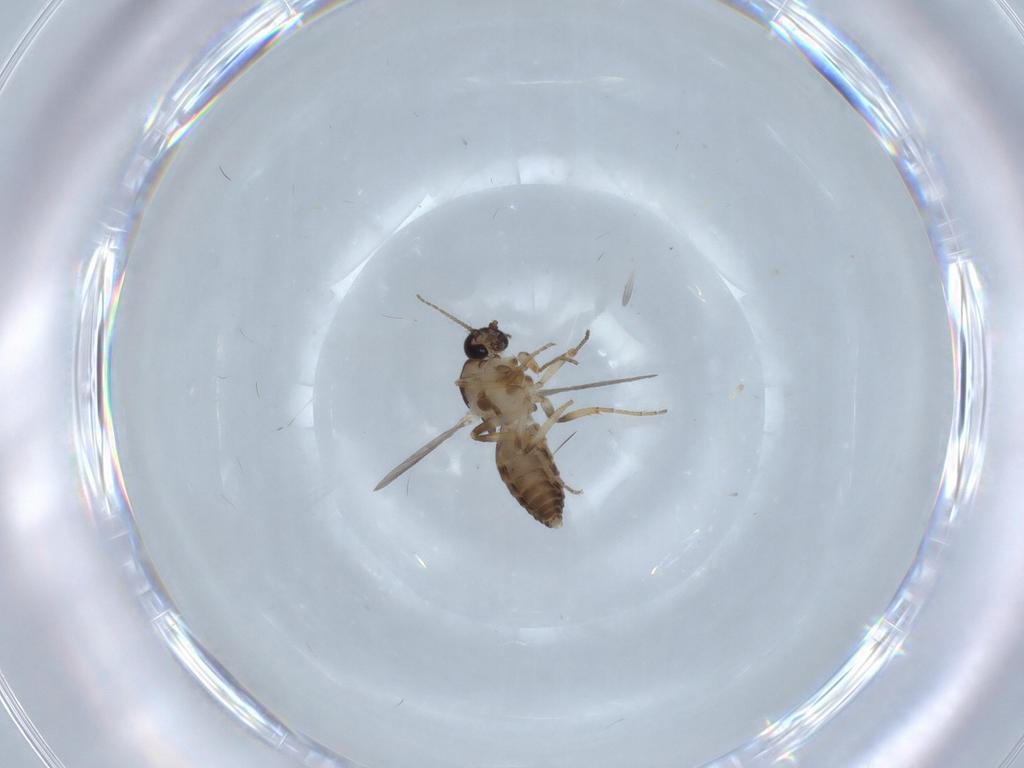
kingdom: Animalia
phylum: Arthropoda
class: Insecta
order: Diptera
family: Ceratopogonidae
